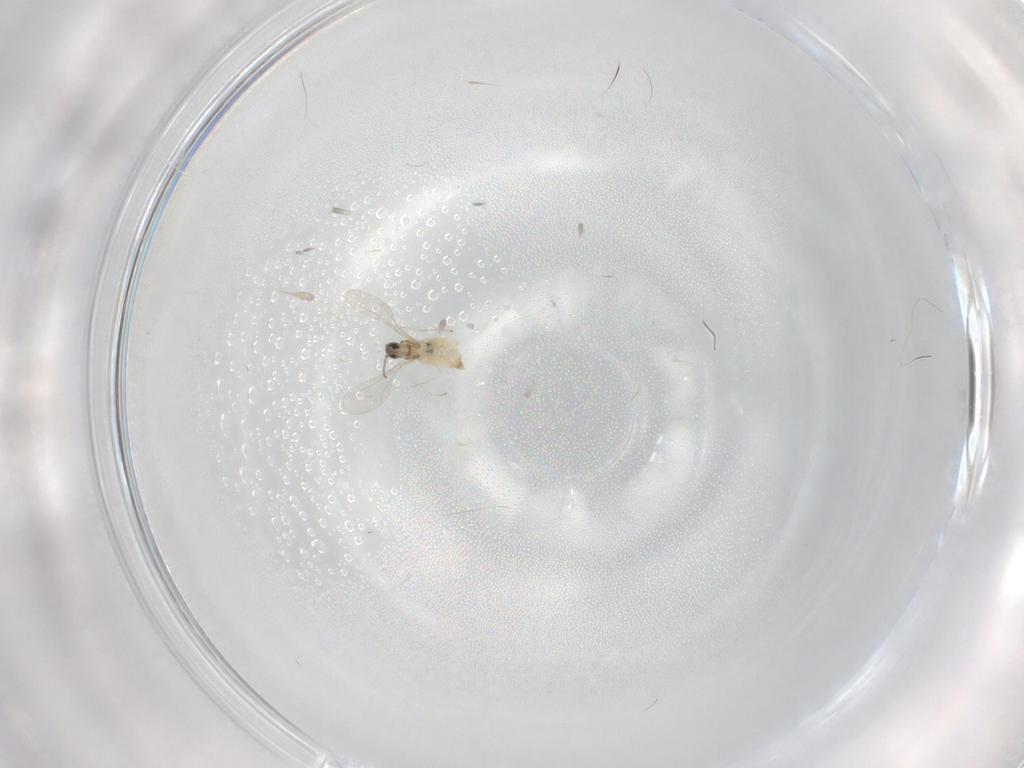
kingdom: Animalia
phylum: Arthropoda
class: Insecta
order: Diptera
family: Cecidomyiidae
